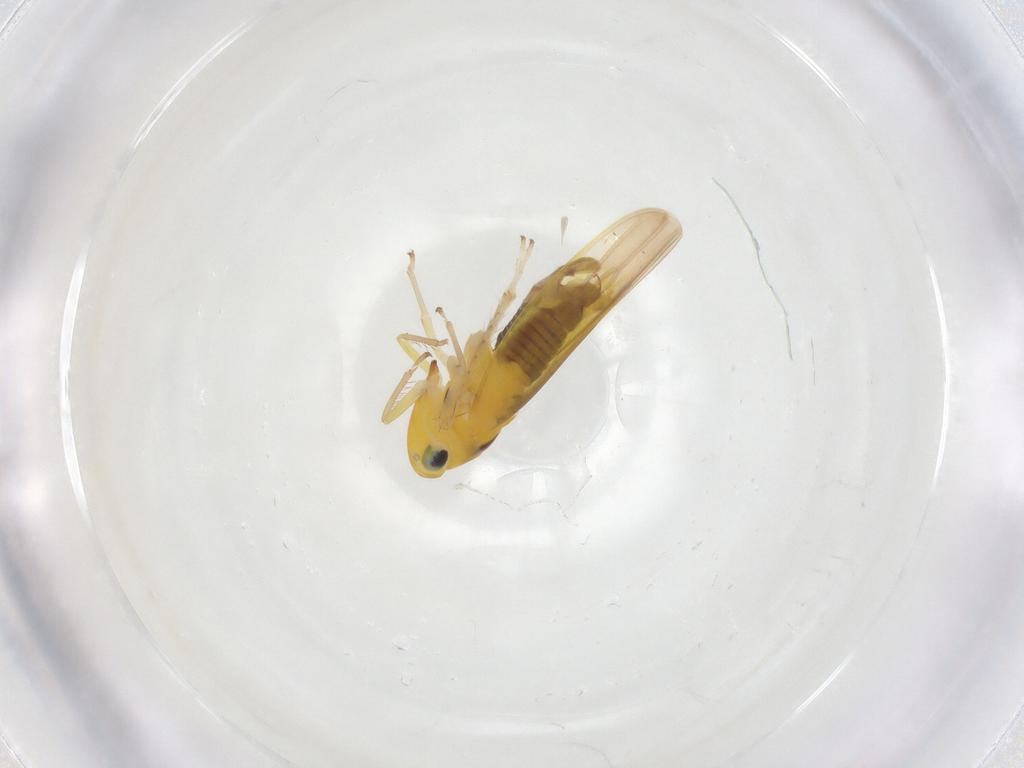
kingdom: Animalia
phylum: Arthropoda
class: Insecta
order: Hemiptera
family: Cicadellidae
